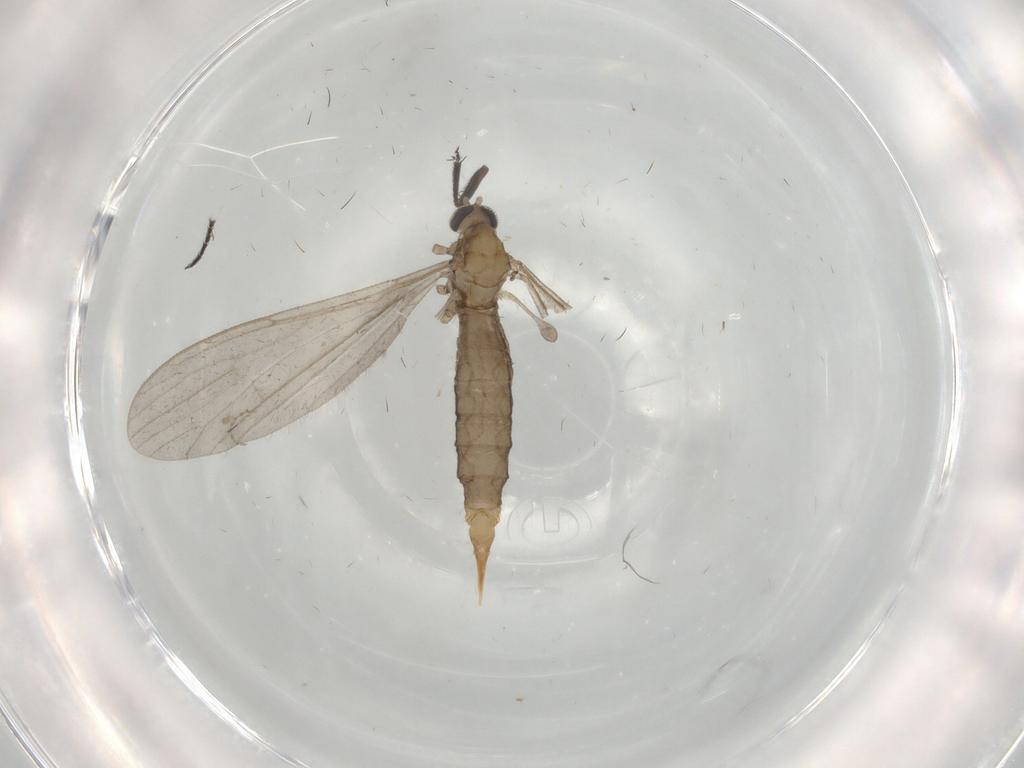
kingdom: Animalia
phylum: Arthropoda
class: Insecta
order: Diptera
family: Limoniidae
